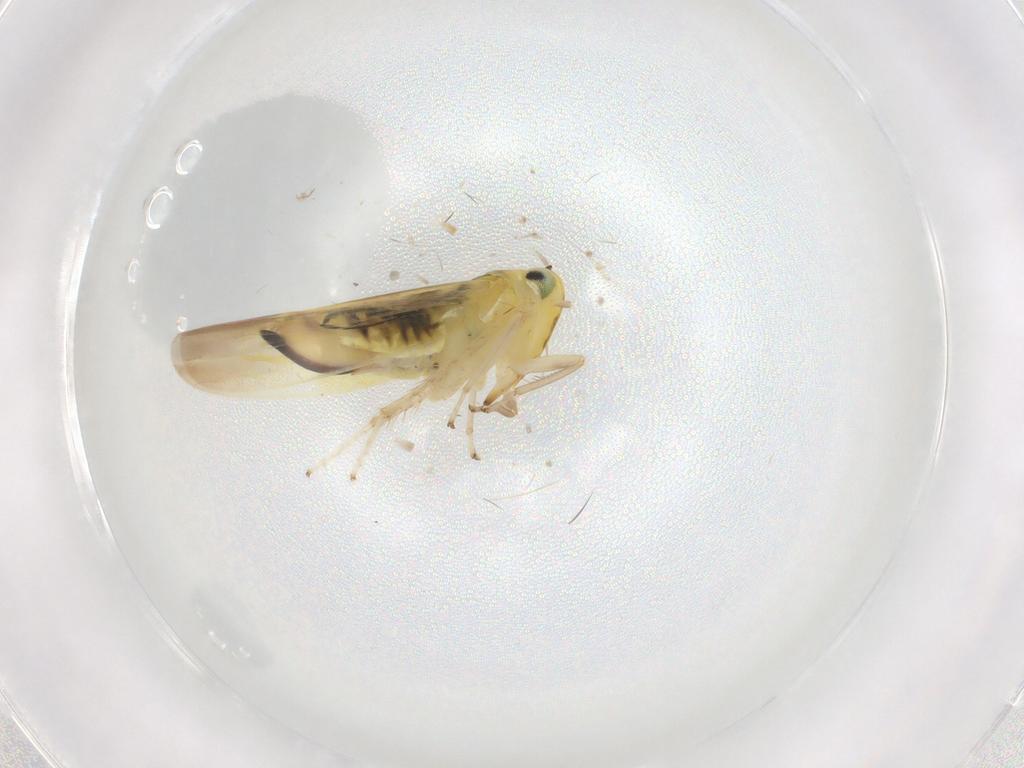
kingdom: Animalia
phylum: Arthropoda
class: Insecta
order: Hemiptera
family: Cicadellidae
